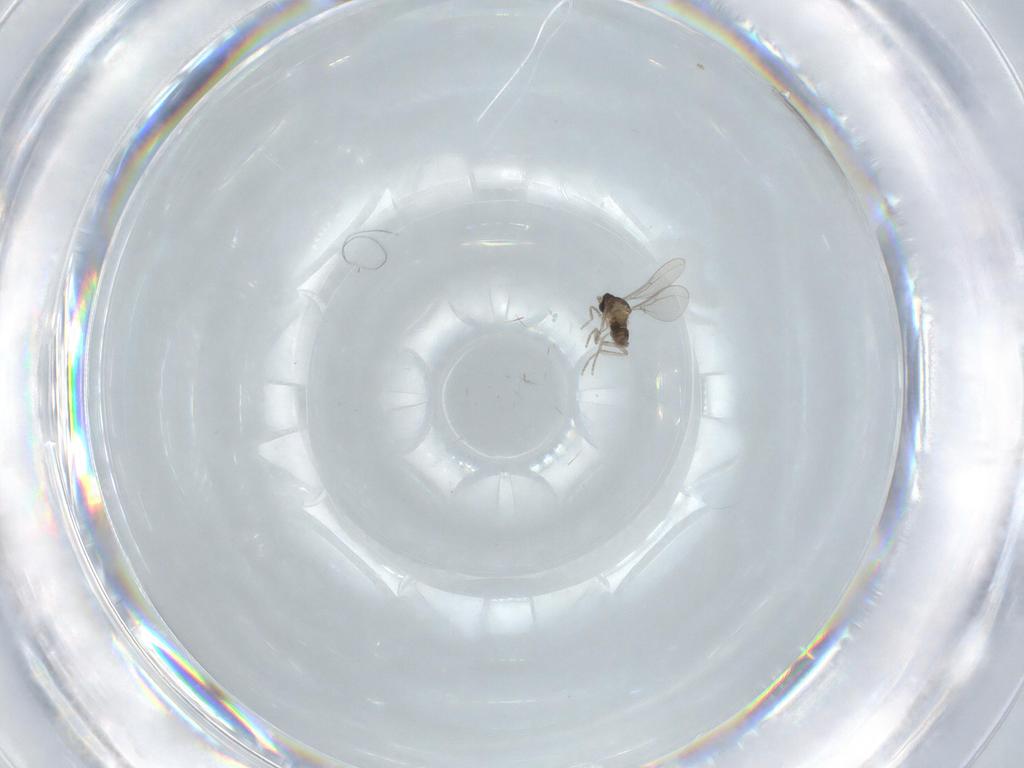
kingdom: Animalia
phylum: Arthropoda
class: Insecta
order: Diptera
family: Cecidomyiidae
